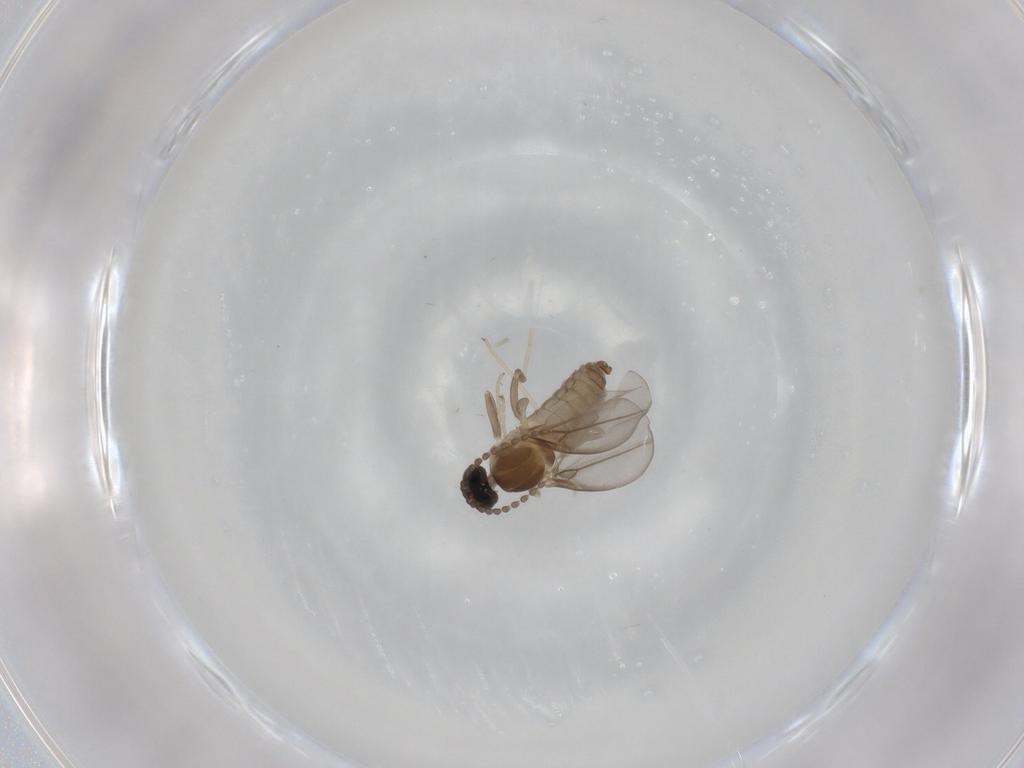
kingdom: Animalia
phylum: Arthropoda
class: Insecta
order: Diptera
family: Cecidomyiidae
